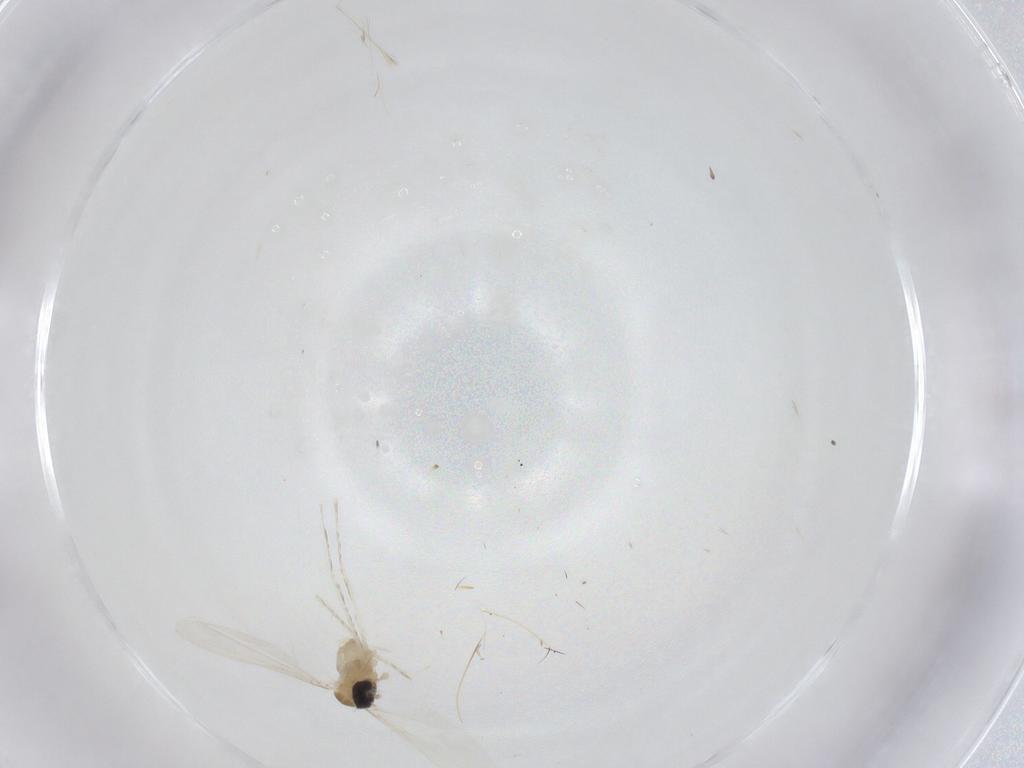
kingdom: Animalia
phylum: Arthropoda
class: Insecta
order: Diptera
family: Cecidomyiidae
